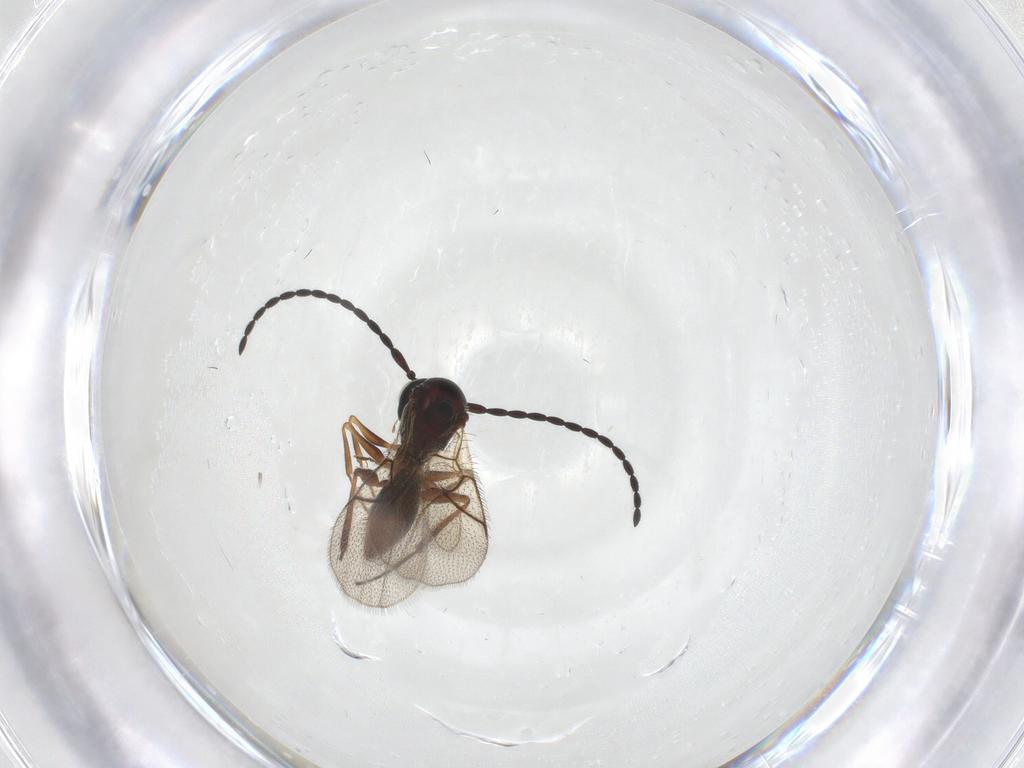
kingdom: Animalia
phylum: Arthropoda
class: Insecta
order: Hymenoptera
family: Figitidae
